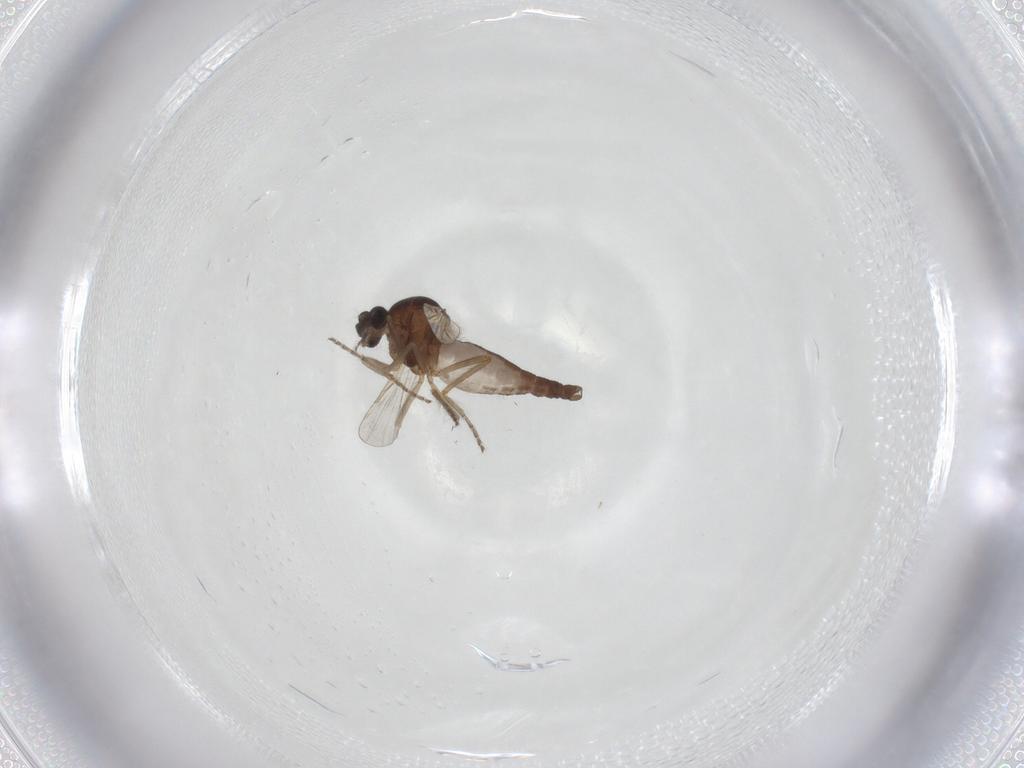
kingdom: Animalia
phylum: Arthropoda
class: Insecta
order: Diptera
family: Ceratopogonidae
